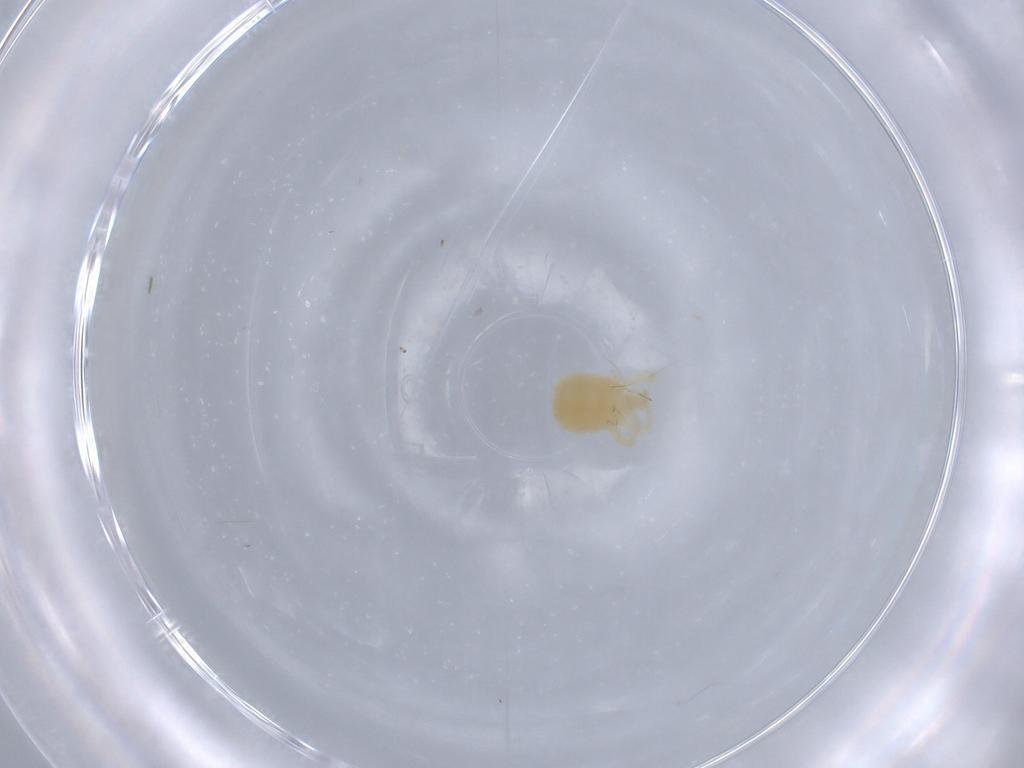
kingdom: Animalia
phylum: Arthropoda
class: Arachnida
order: Trombidiformes
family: Anystidae
